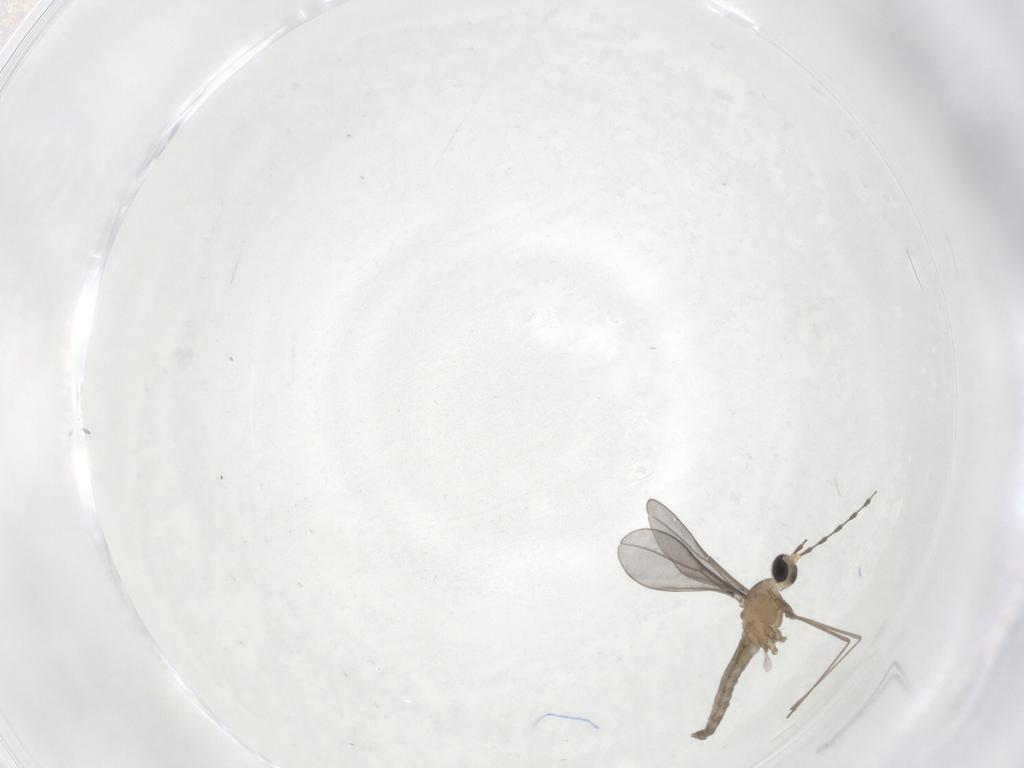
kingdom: Animalia
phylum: Arthropoda
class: Insecta
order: Diptera
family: Cecidomyiidae
